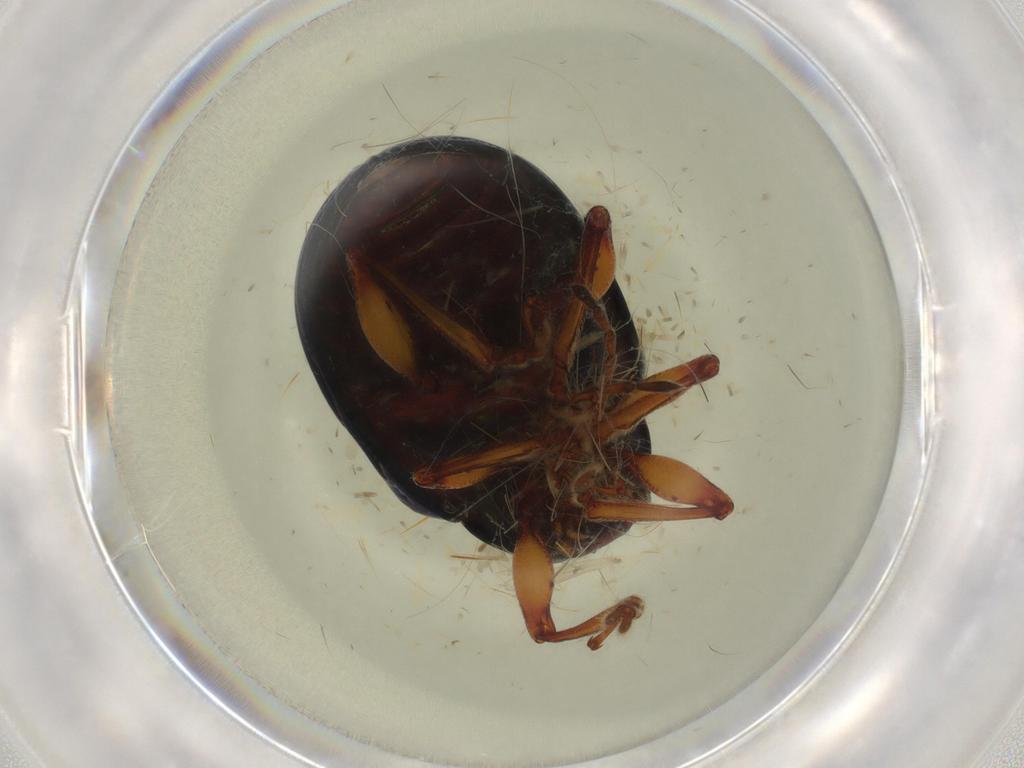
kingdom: Animalia
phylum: Arthropoda
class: Insecta
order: Coleoptera
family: Chrysomelidae
